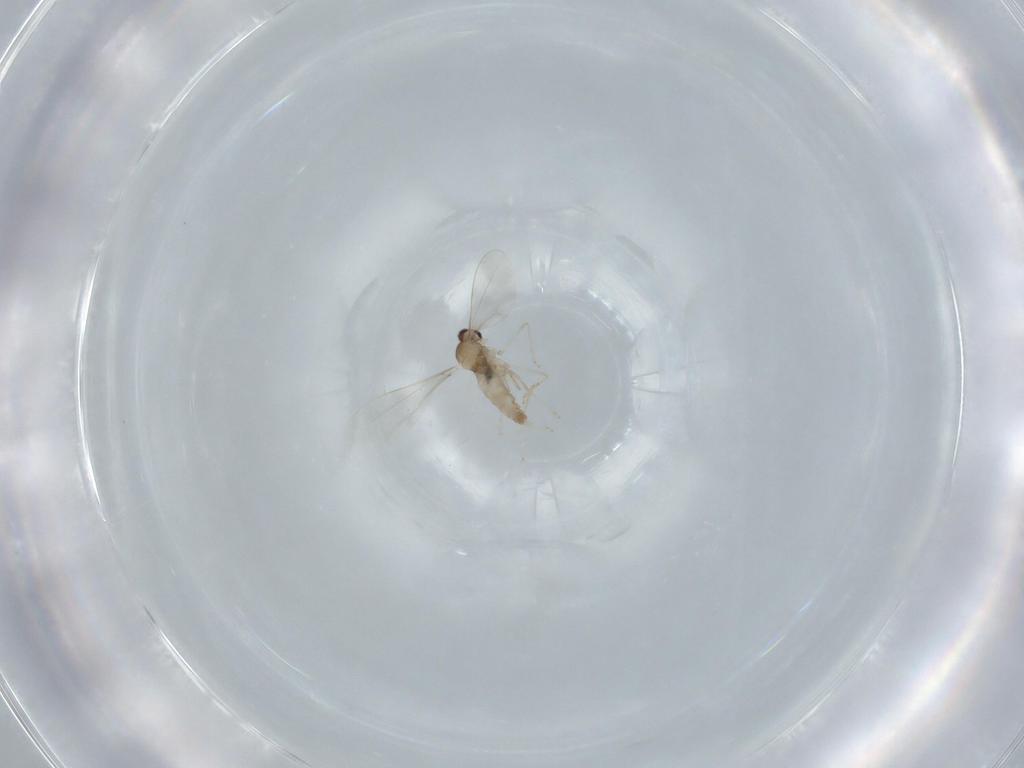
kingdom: Animalia
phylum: Arthropoda
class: Insecta
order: Diptera
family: Cecidomyiidae
